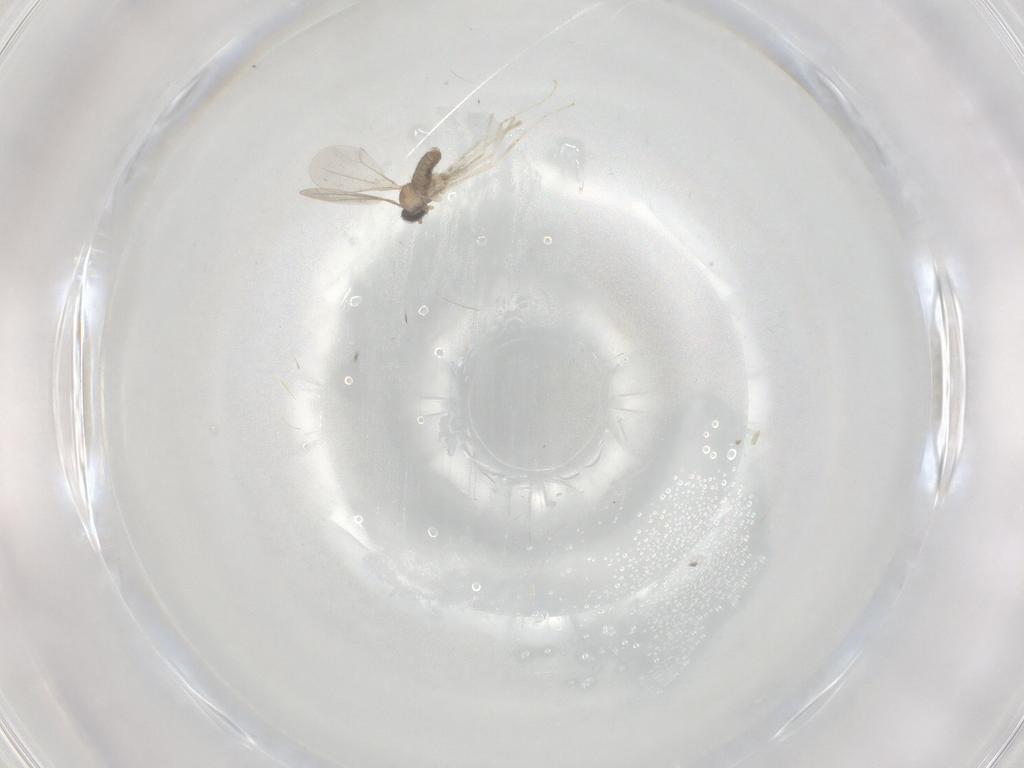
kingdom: Animalia
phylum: Arthropoda
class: Insecta
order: Diptera
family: Cecidomyiidae
